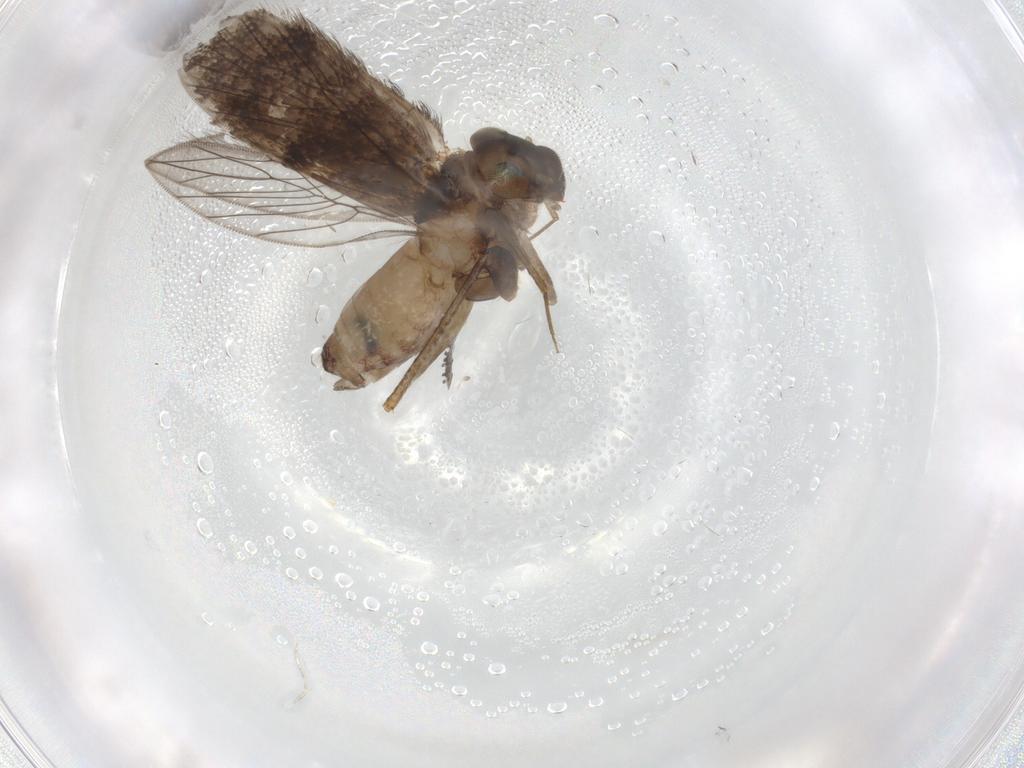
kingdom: Animalia
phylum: Arthropoda
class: Insecta
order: Psocodea
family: Lepidopsocidae
